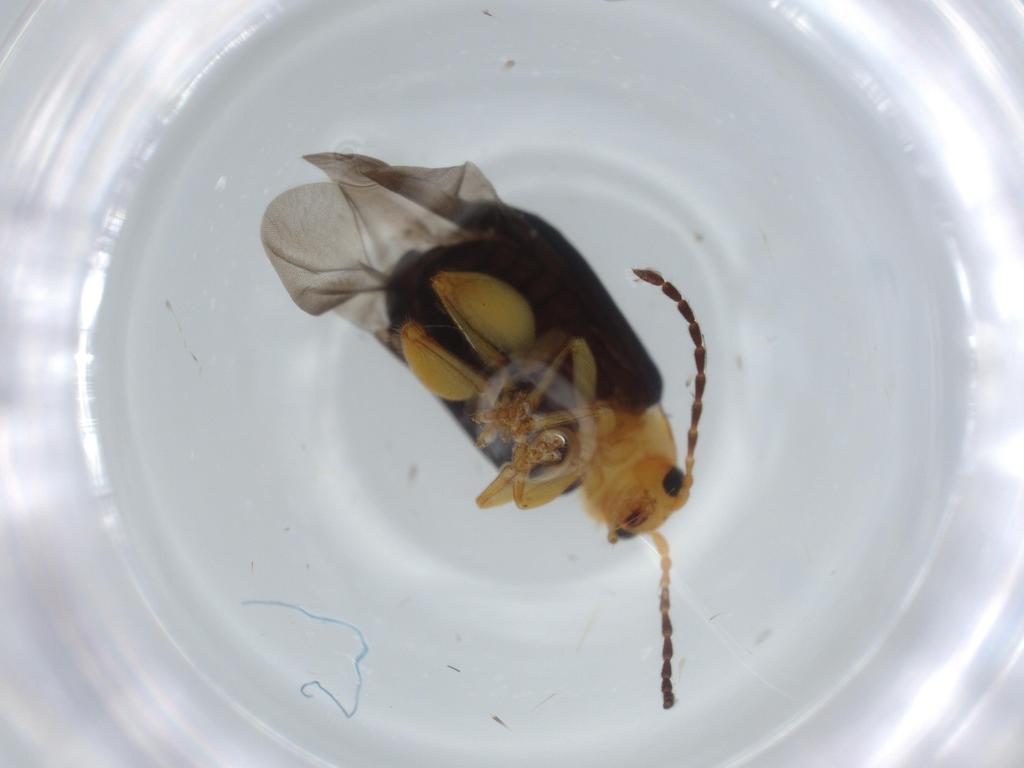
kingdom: Animalia
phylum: Arthropoda
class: Insecta
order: Coleoptera
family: Chrysomelidae
